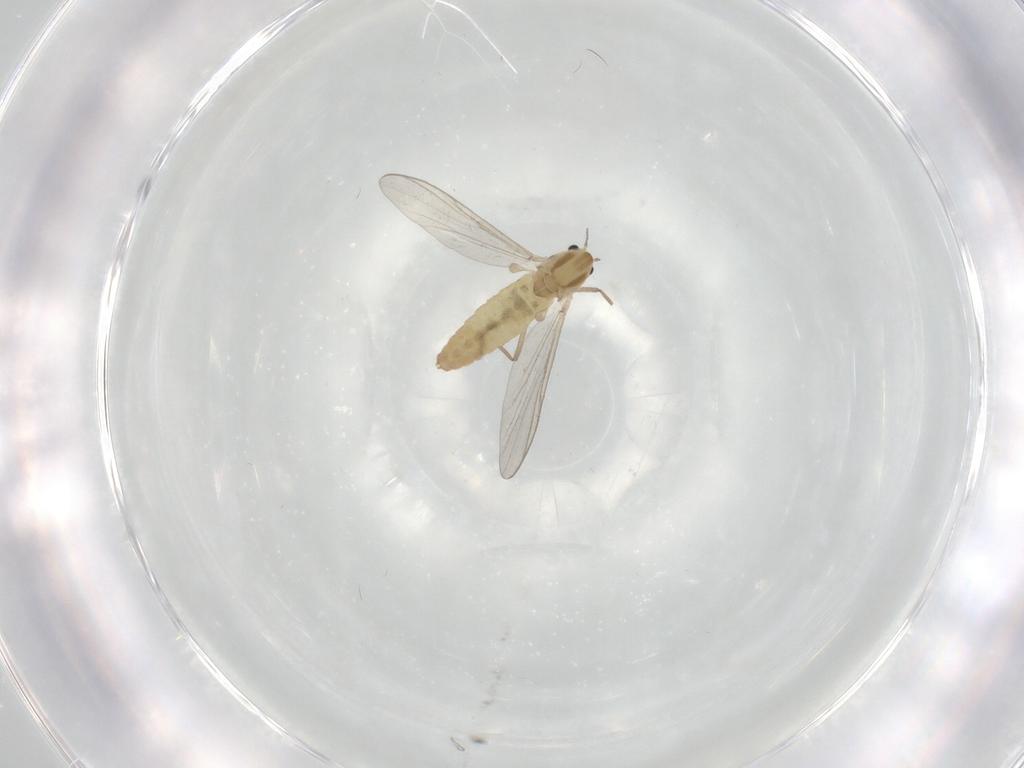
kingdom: Animalia
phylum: Arthropoda
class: Insecta
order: Diptera
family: Chironomidae
